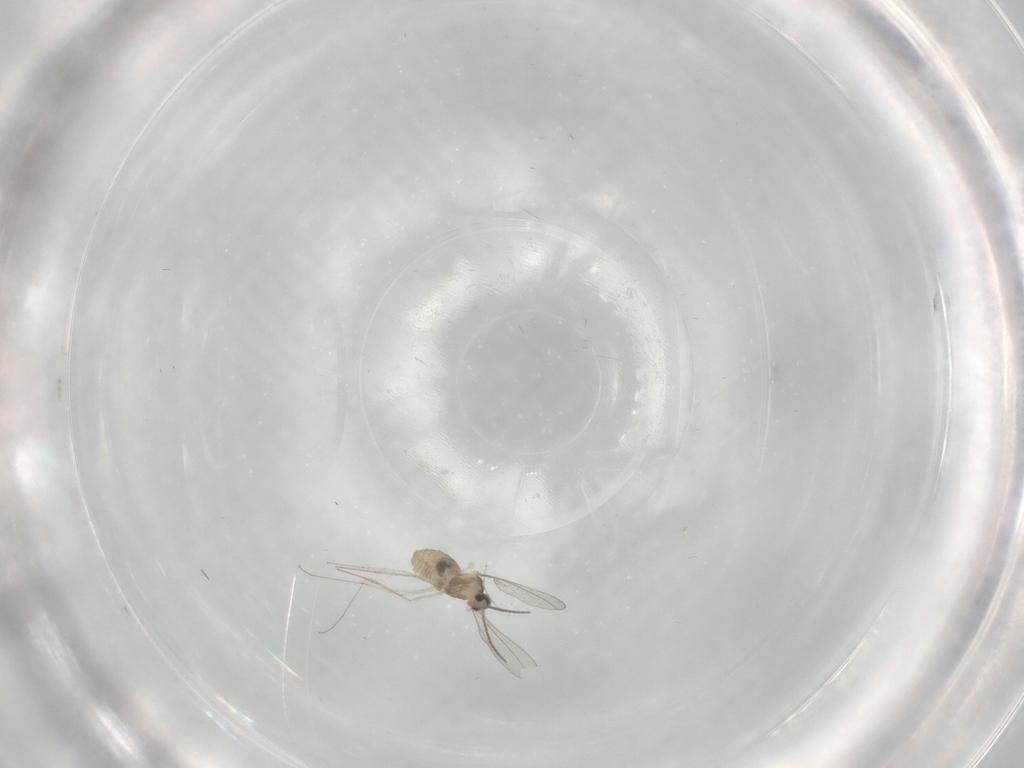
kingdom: Animalia
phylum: Arthropoda
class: Insecta
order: Diptera
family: Cecidomyiidae
